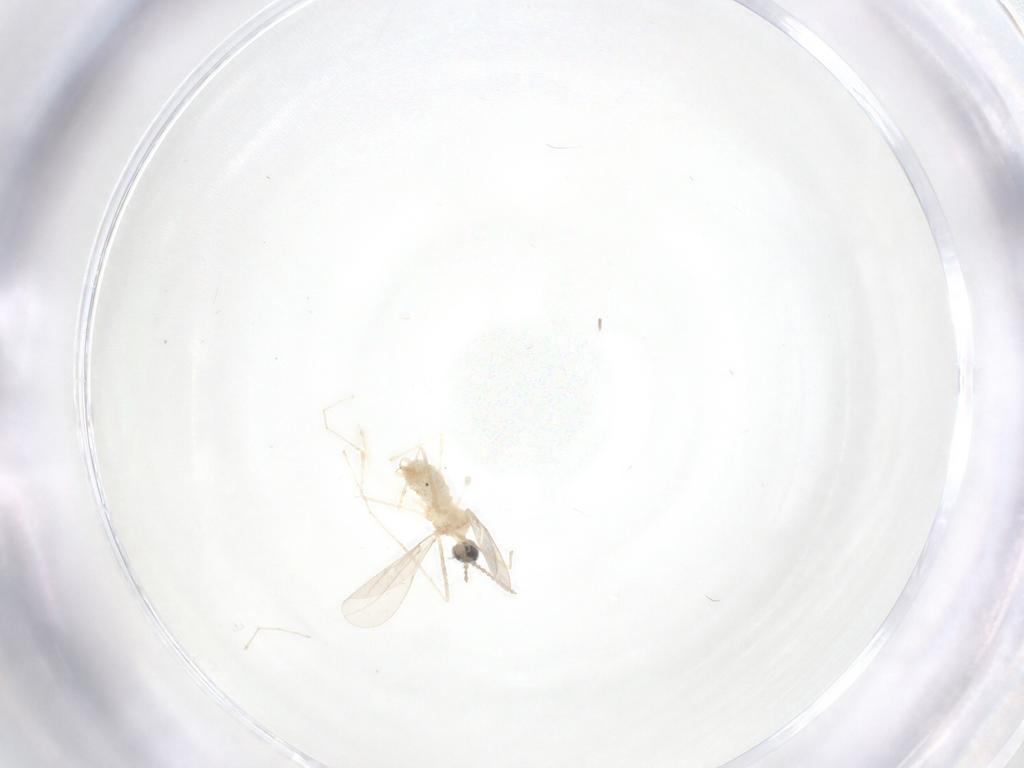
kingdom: Animalia
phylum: Arthropoda
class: Insecta
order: Diptera
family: Cecidomyiidae
